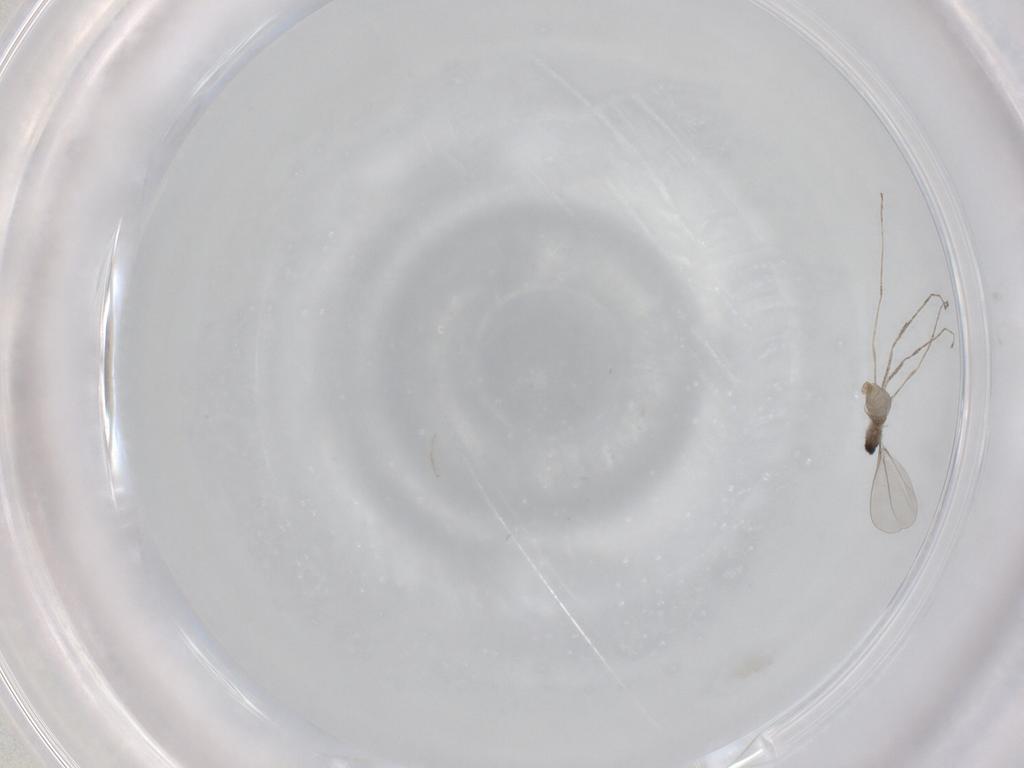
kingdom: Animalia
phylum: Arthropoda
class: Insecta
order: Diptera
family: Cecidomyiidae
